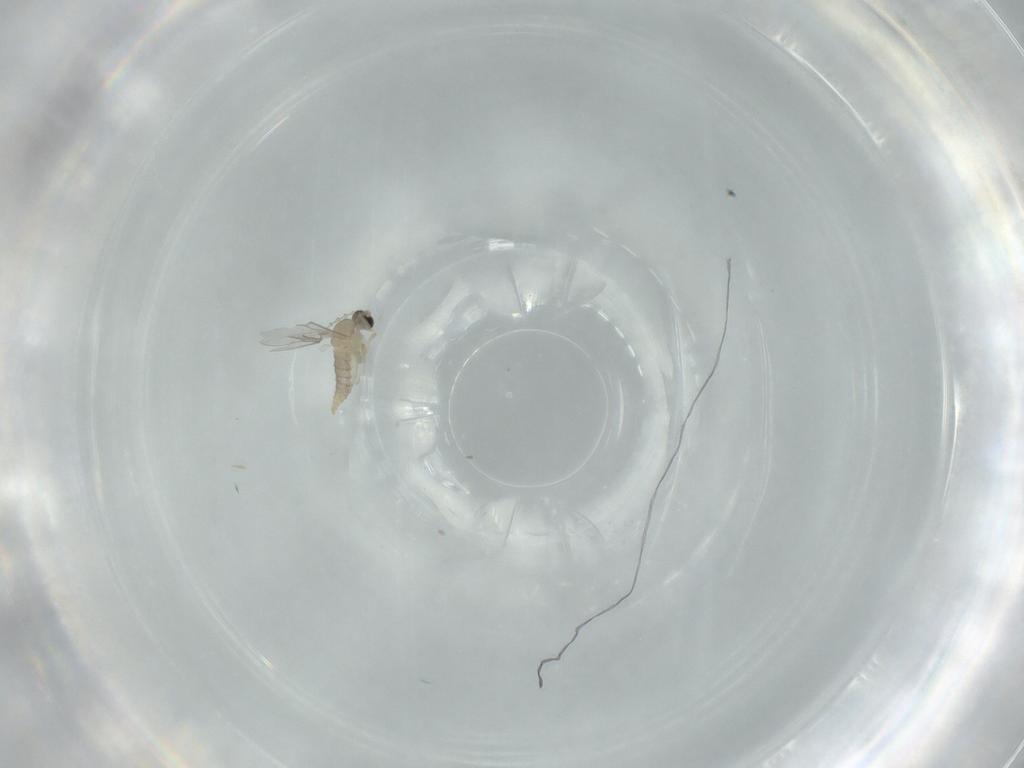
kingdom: Animalia
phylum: Arthropoda
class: Insecta
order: Diptera
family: Cecidomyiidae
